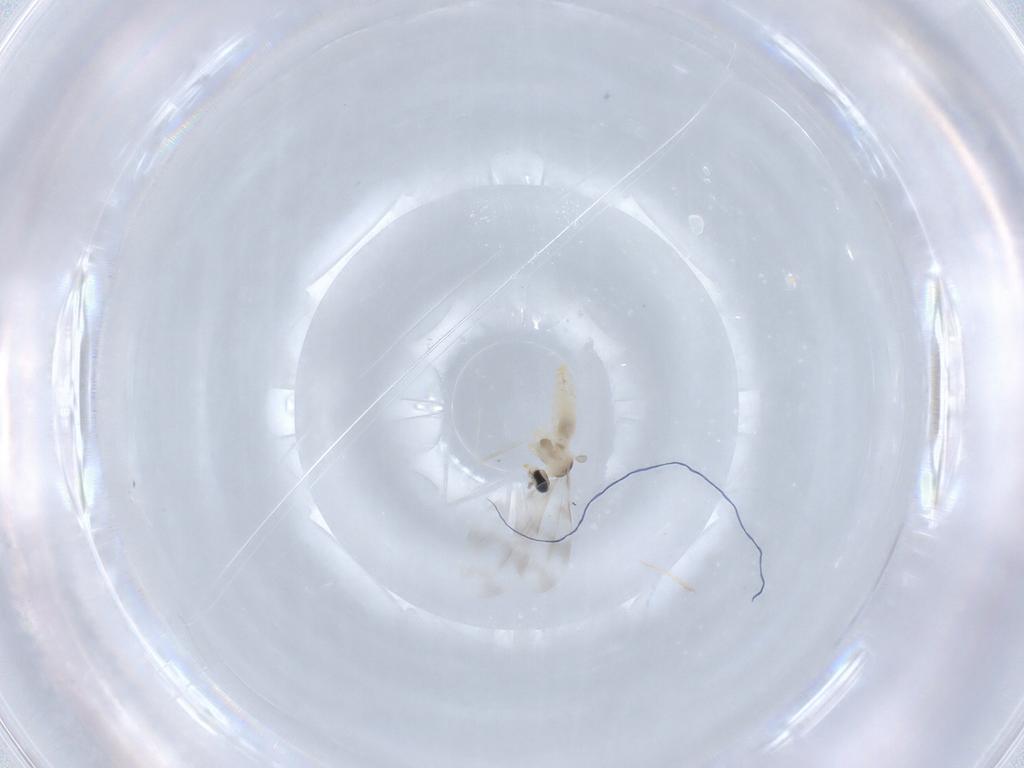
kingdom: Animalia
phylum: Arthropoda
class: Insecta
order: Diptera
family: Cecidomyiidae
